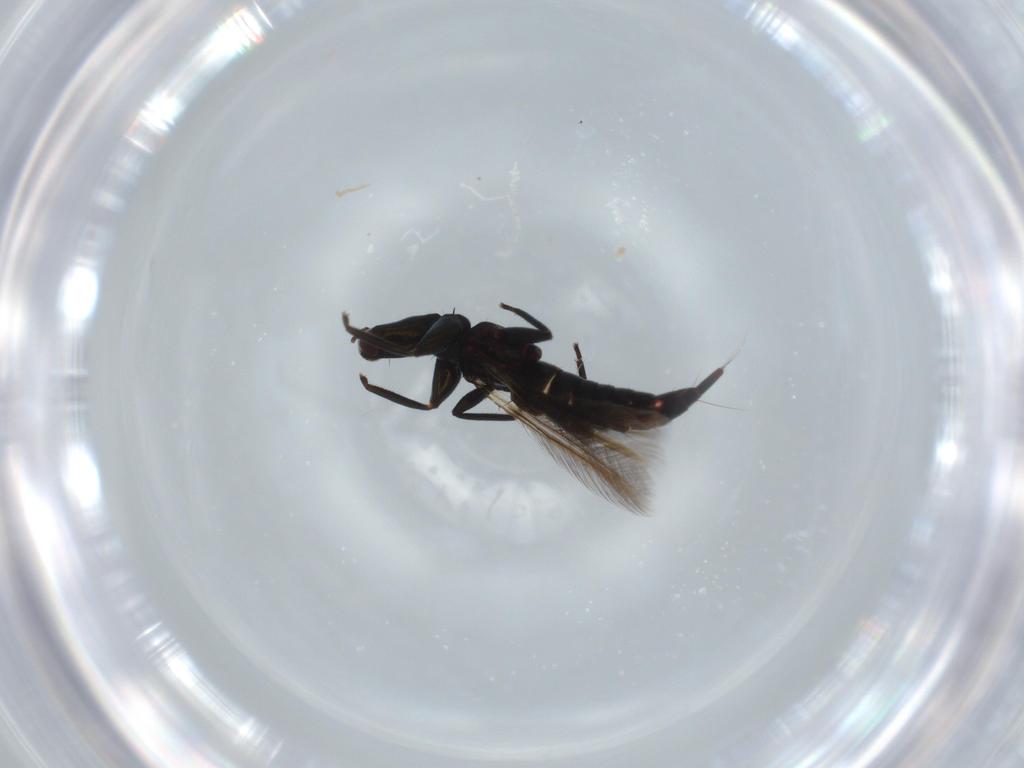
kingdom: Animalia
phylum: Arthropoda
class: Insecta
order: Thysanoptera
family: Phlaeothripidae
